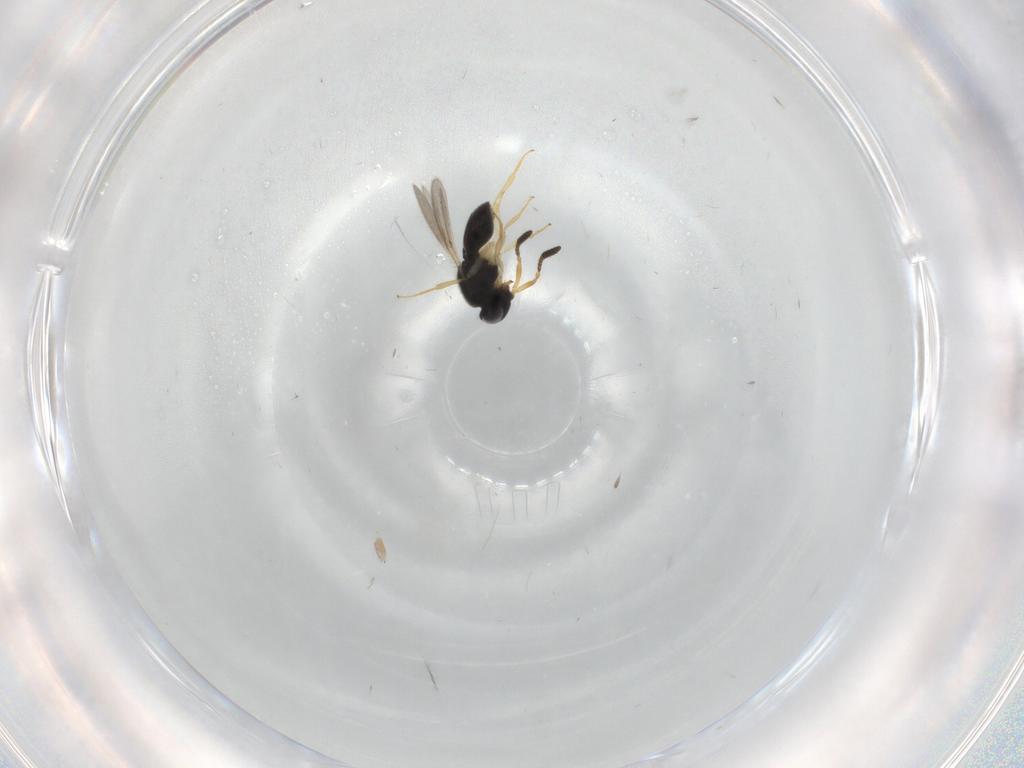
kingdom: Animalia
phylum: Arthropoda
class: Insecta
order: Hymenoptera
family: Scelionidae
